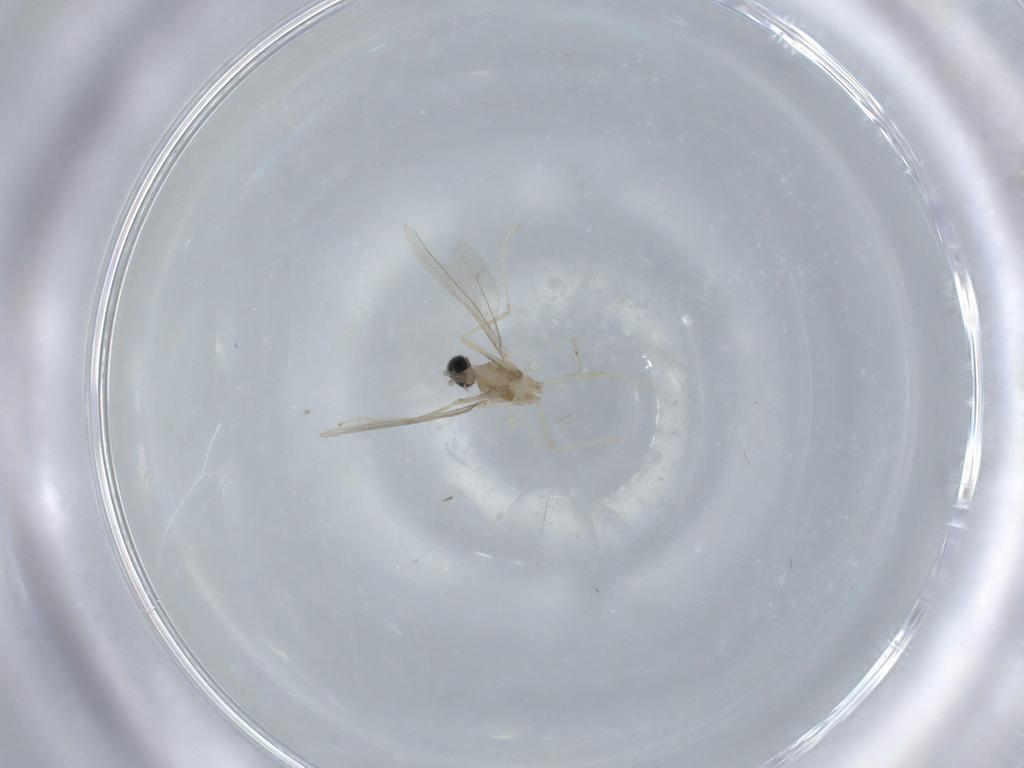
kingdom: Animalia
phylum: Arthropoda
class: Insecta
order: Diptera
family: Cecidomyiidae
